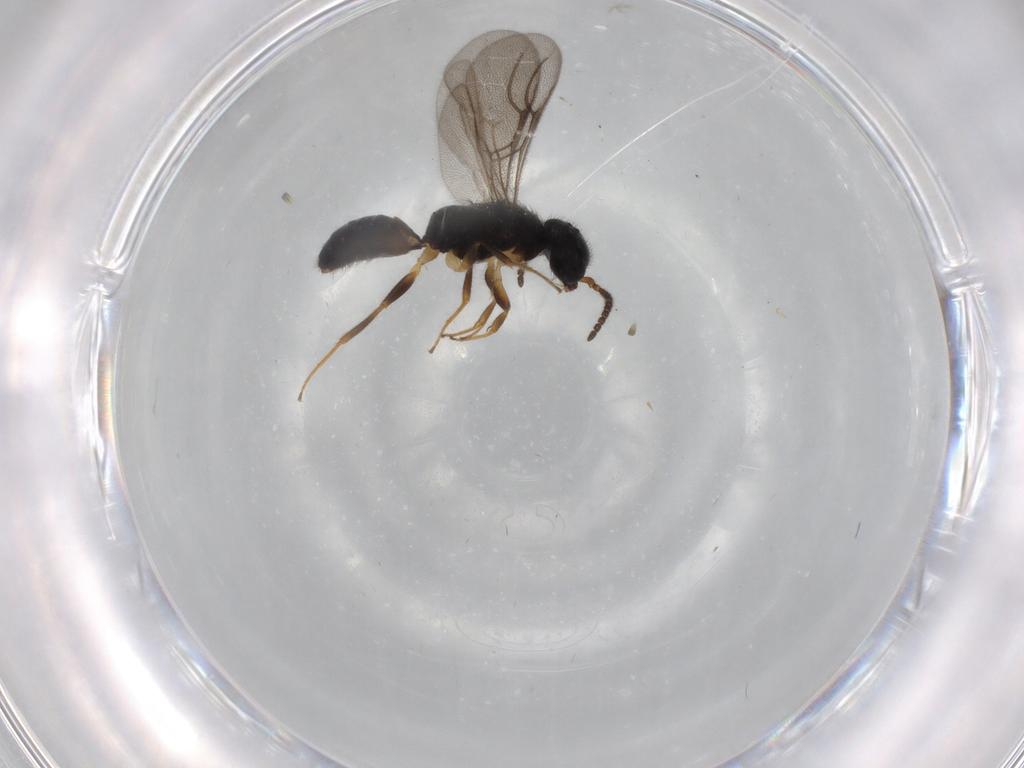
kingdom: Animalia
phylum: Arthropoda
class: Insecta
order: Hymenoptera
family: Bethylidae
